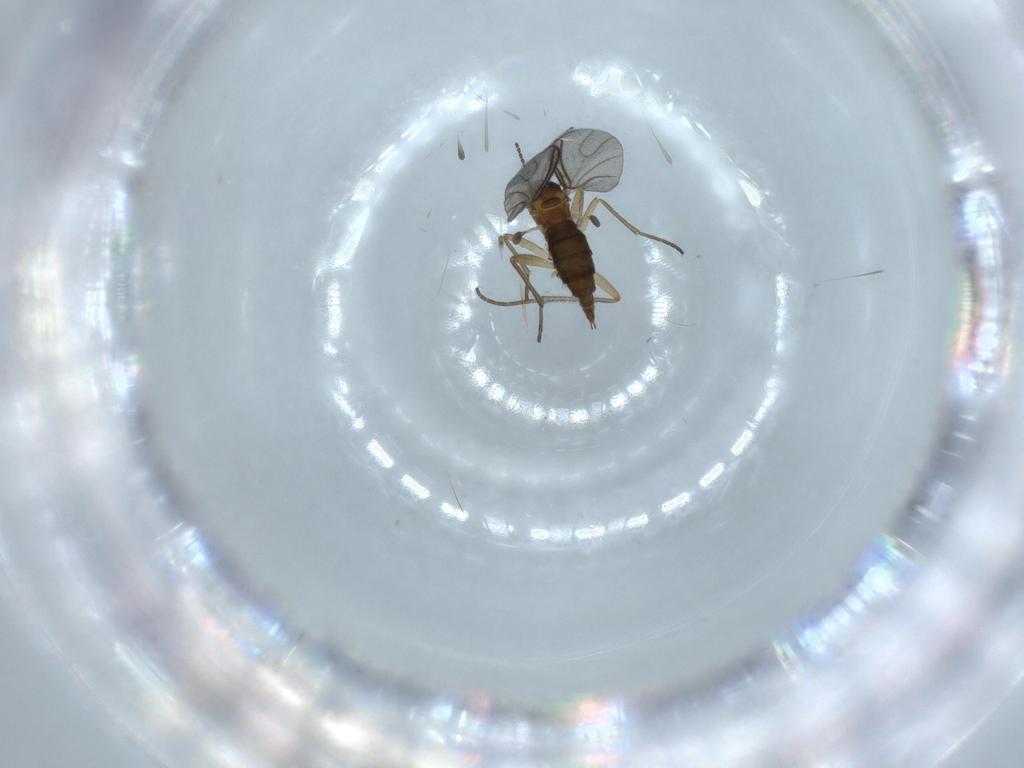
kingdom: Animalia
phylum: Arthropoda
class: Insecta
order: Diptera
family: Sciaridae
